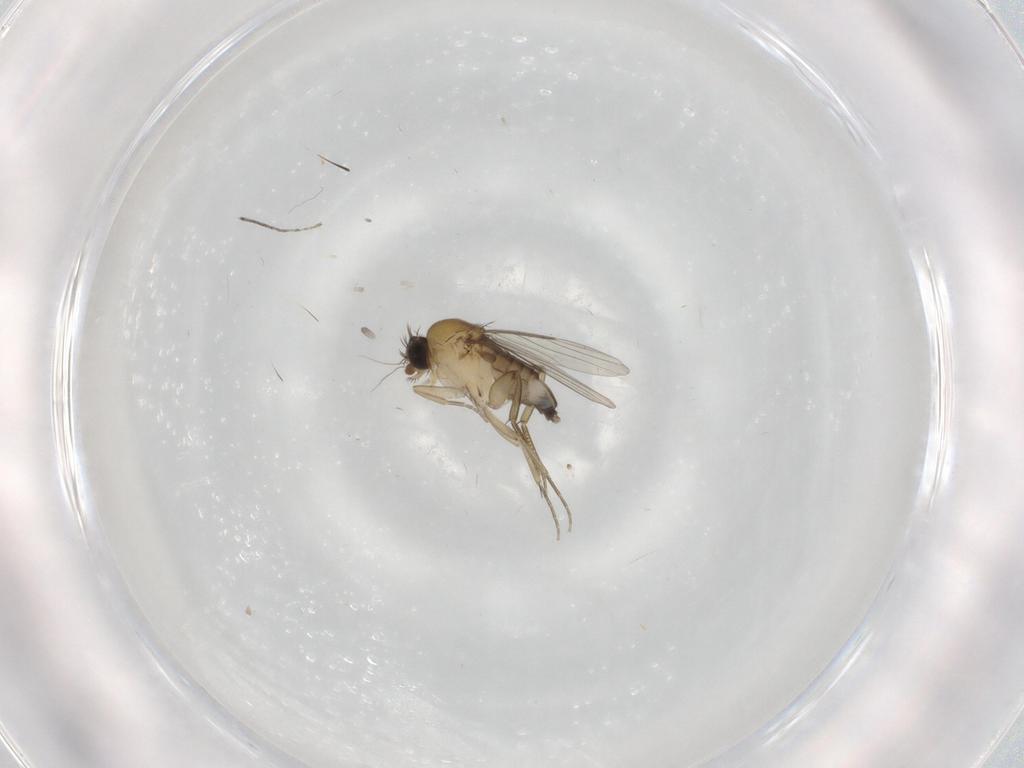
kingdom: Animalia
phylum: Arthropoda
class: Insecta
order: Diptera
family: Phoridae
